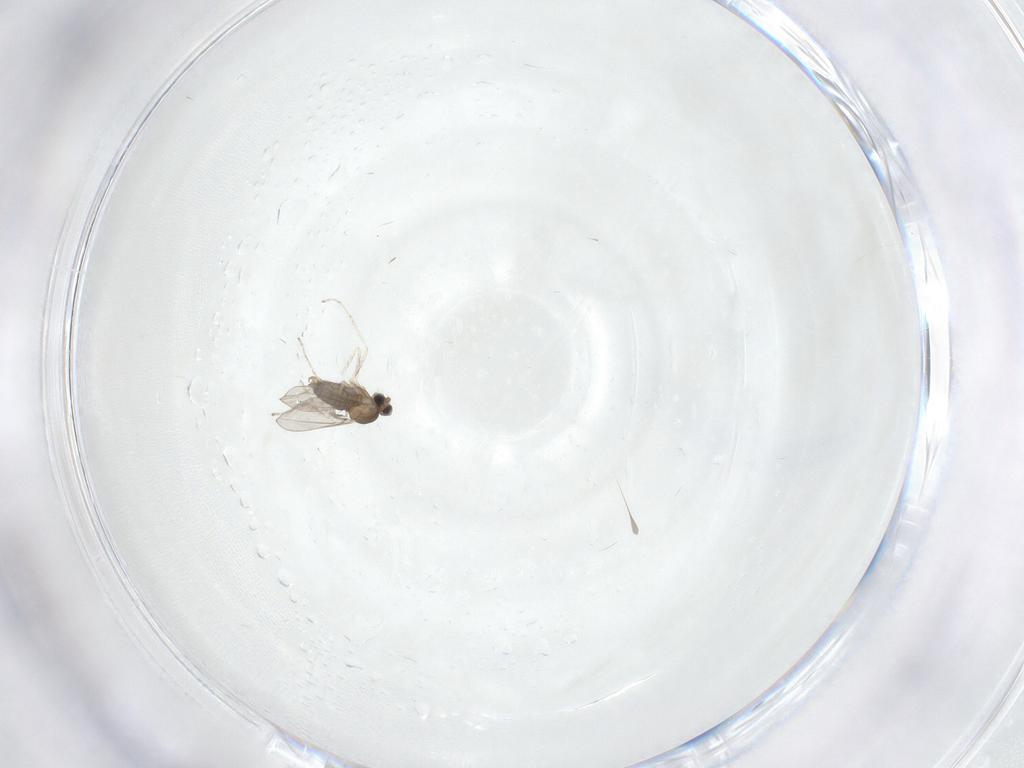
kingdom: Animalia
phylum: Arthropoda
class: Insecta
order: Diptera
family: Cecidomyiidae
